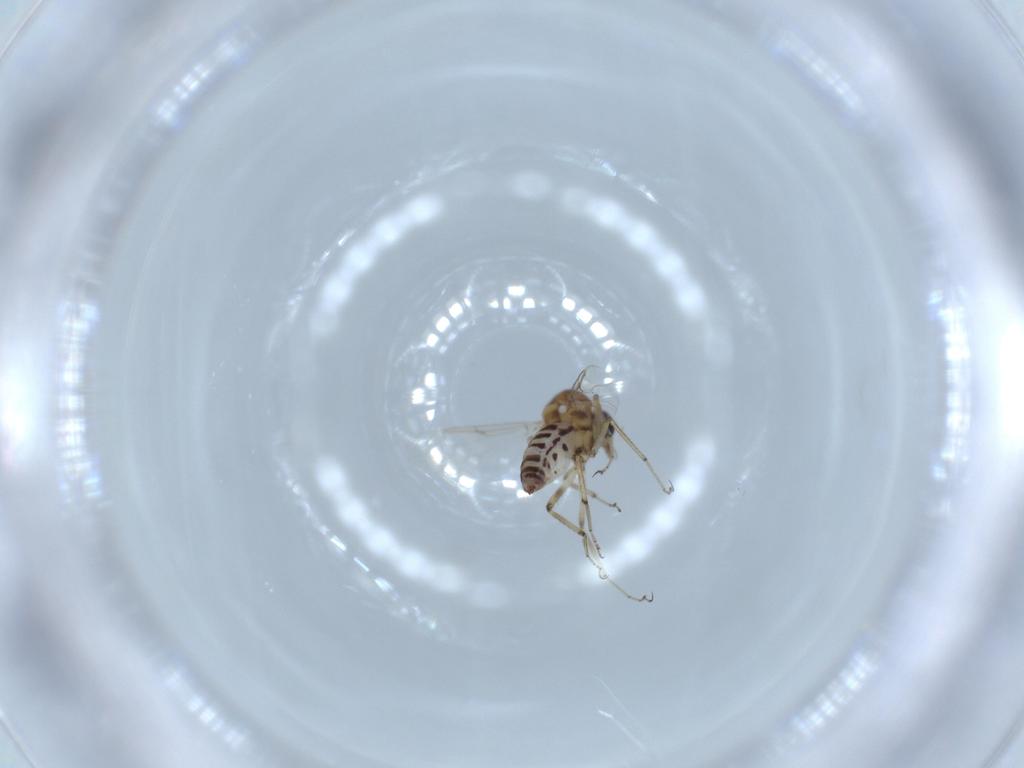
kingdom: Animalia
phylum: Arthropoda
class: Insecta
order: Diptera
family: Ceratopogonidae
